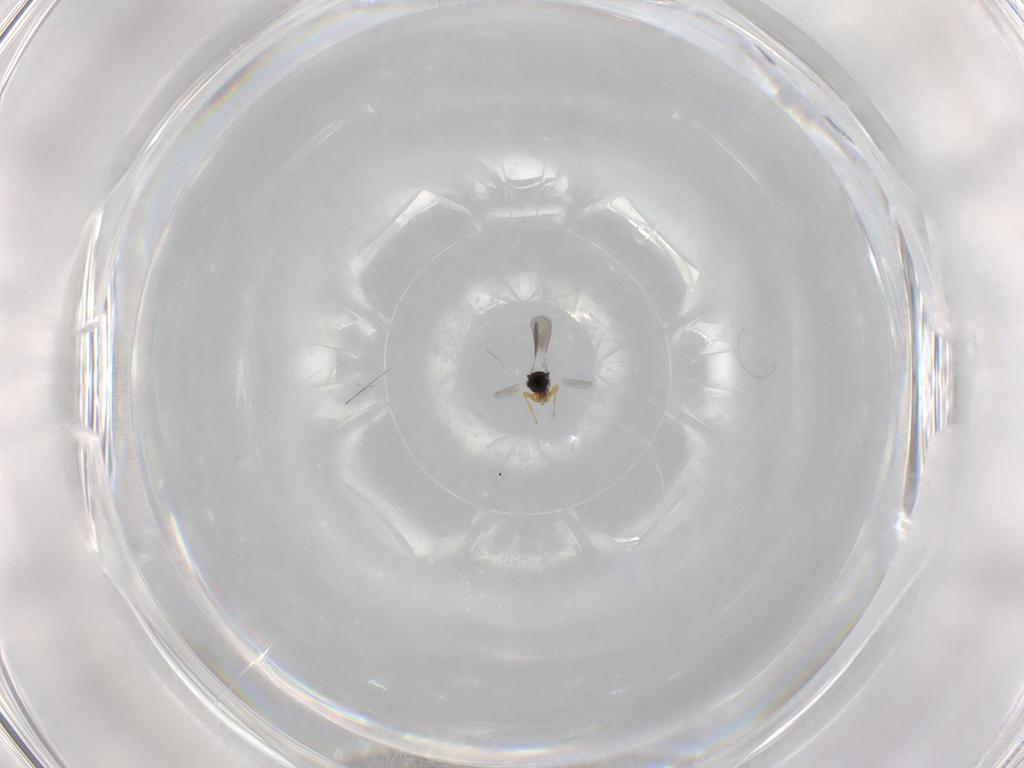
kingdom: Animalia
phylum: Arthropoda
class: Insecta
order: Hymenoptera
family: Platygastridae
